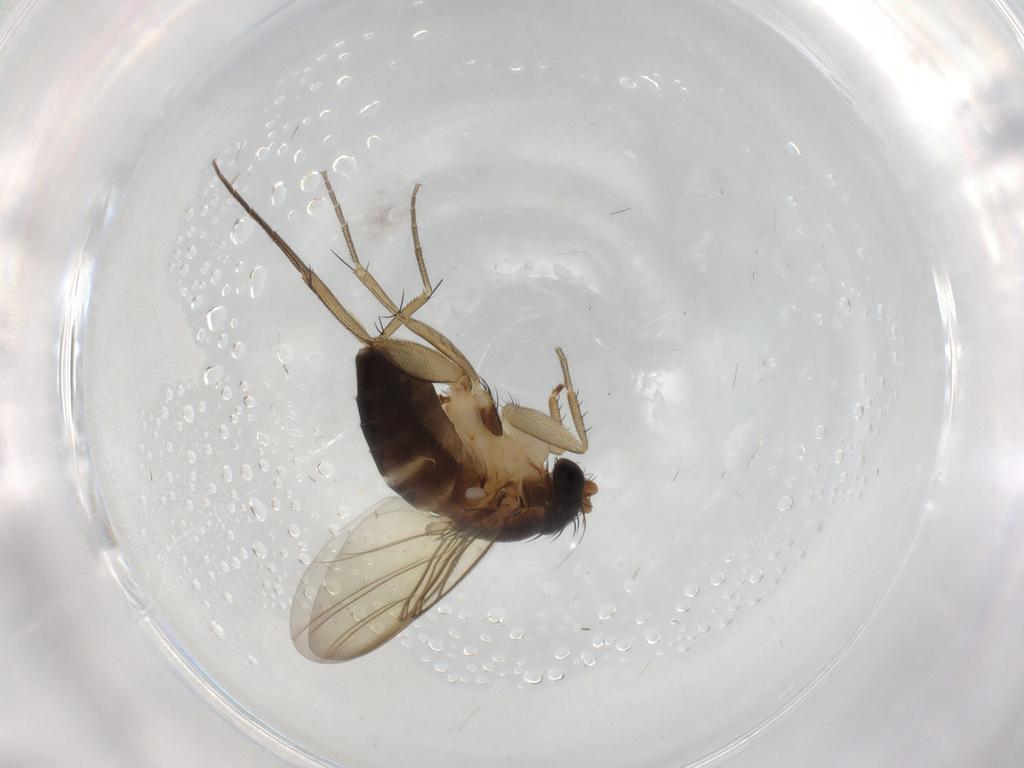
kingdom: Animalia
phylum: Arthropoda
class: Insecta
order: Diptera
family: Phoridae
